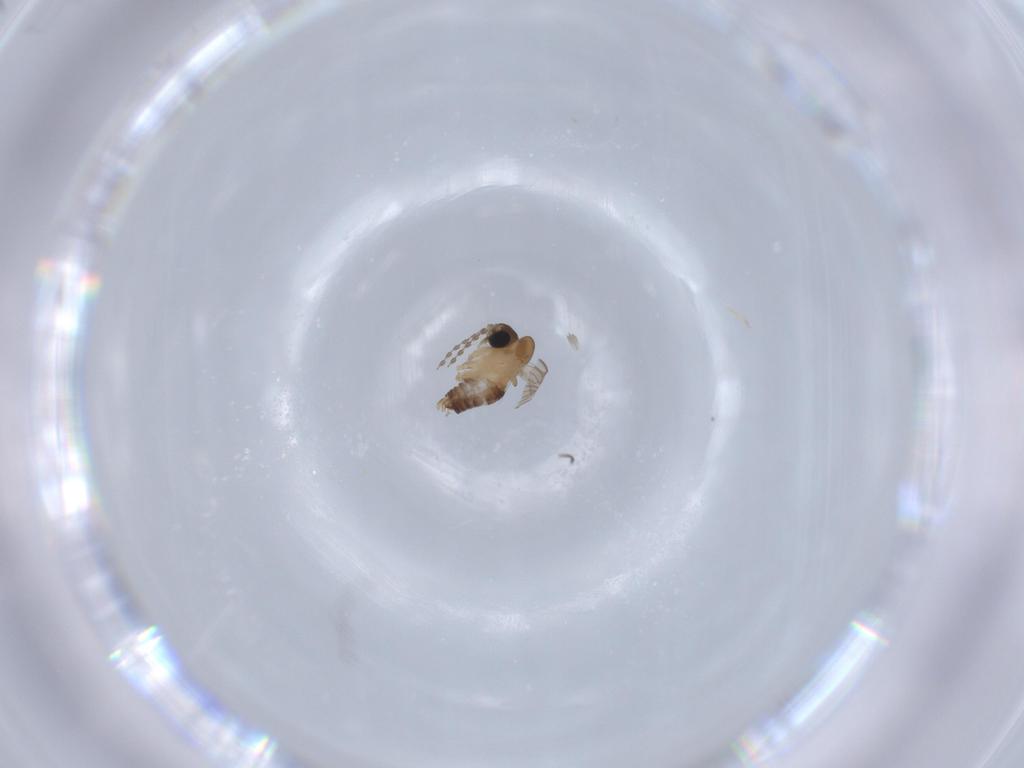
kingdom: Animalia
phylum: Arthropoda
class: Insecta
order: Diptera
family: Psychodidae
